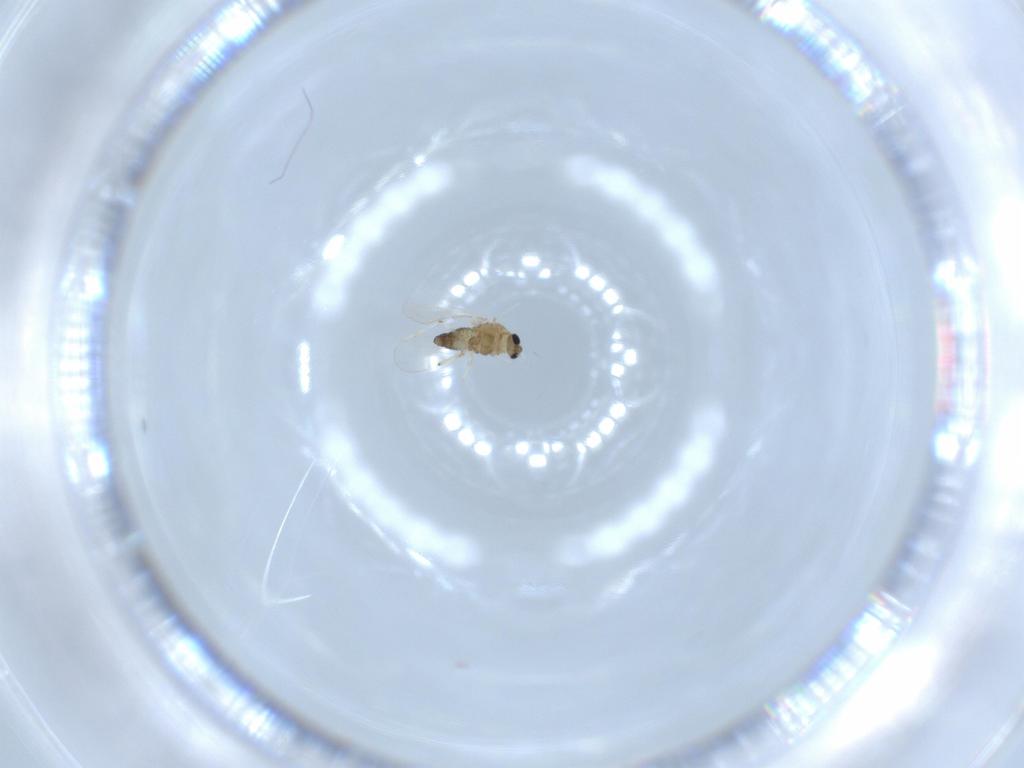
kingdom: Animalia
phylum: Arthropoda
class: Insecta
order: Diptera
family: Chironomidae
